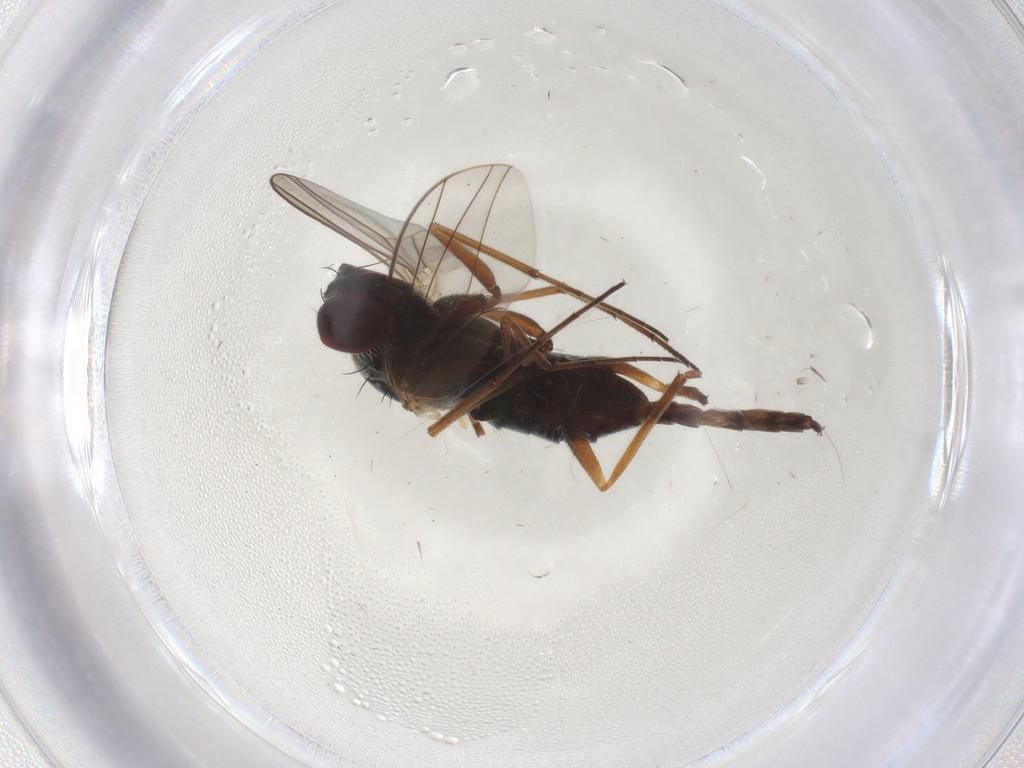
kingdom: Animalia
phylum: Arthropoda
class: Insecta
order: Diptera
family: Dolichopodidae
